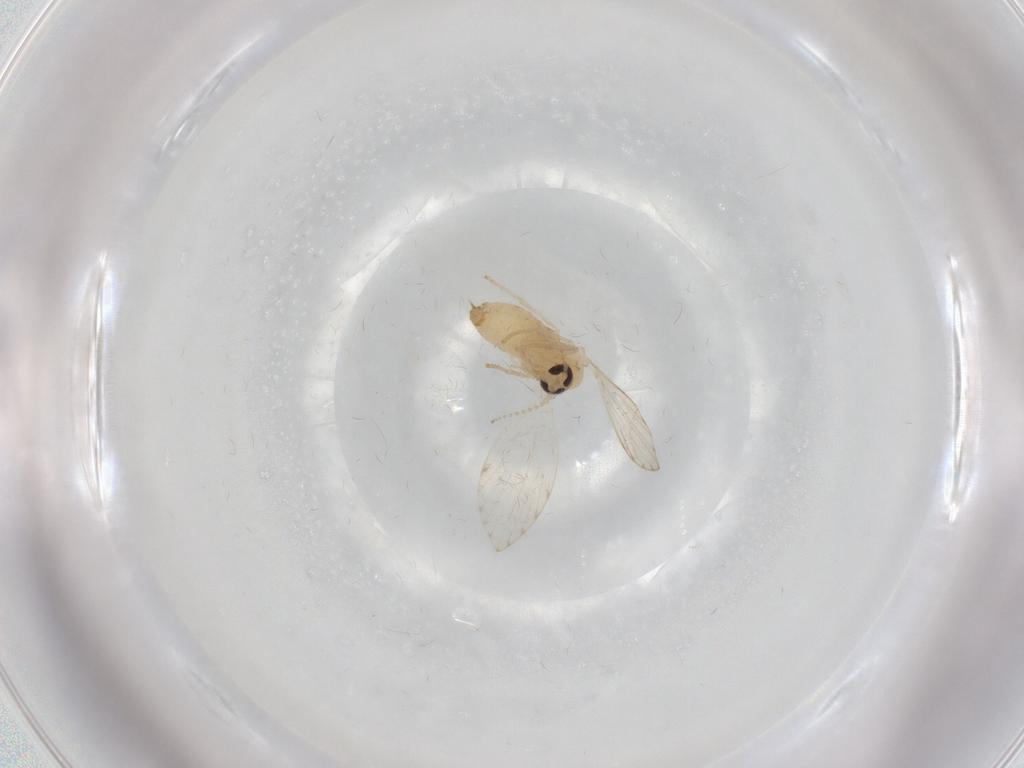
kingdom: Animalia
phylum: Arthropoda
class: Insecta
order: Diptera
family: Psychodidae
